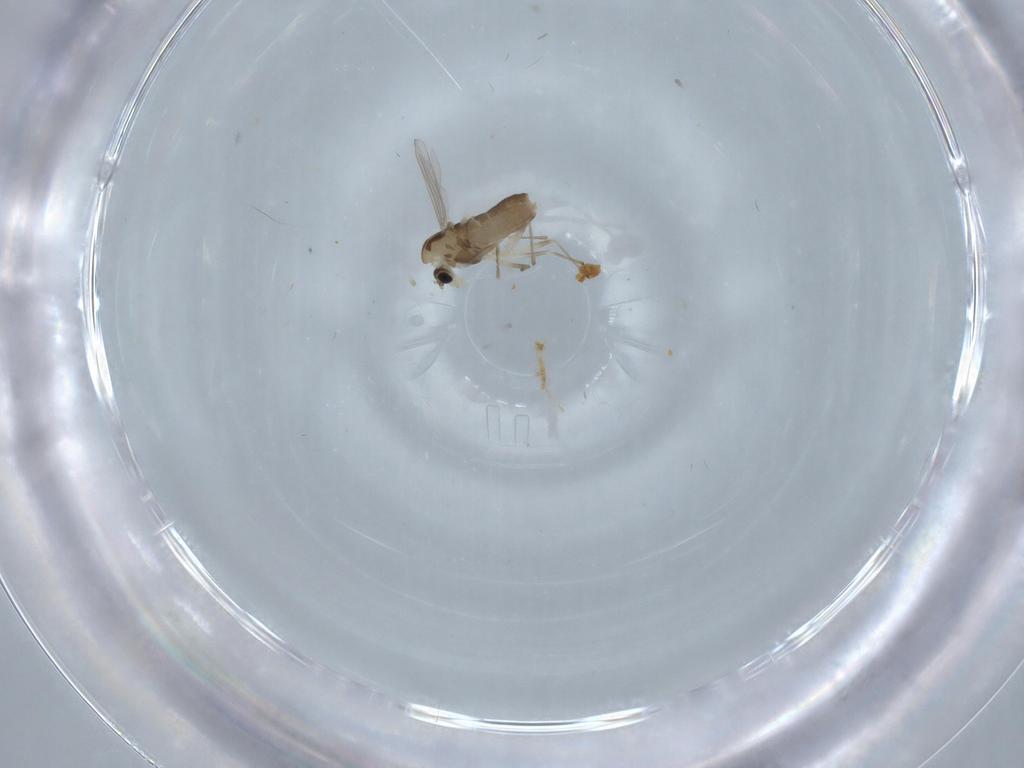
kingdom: Animalia
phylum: Arthropoda
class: Insecta
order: Diptera
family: Chironomidae
